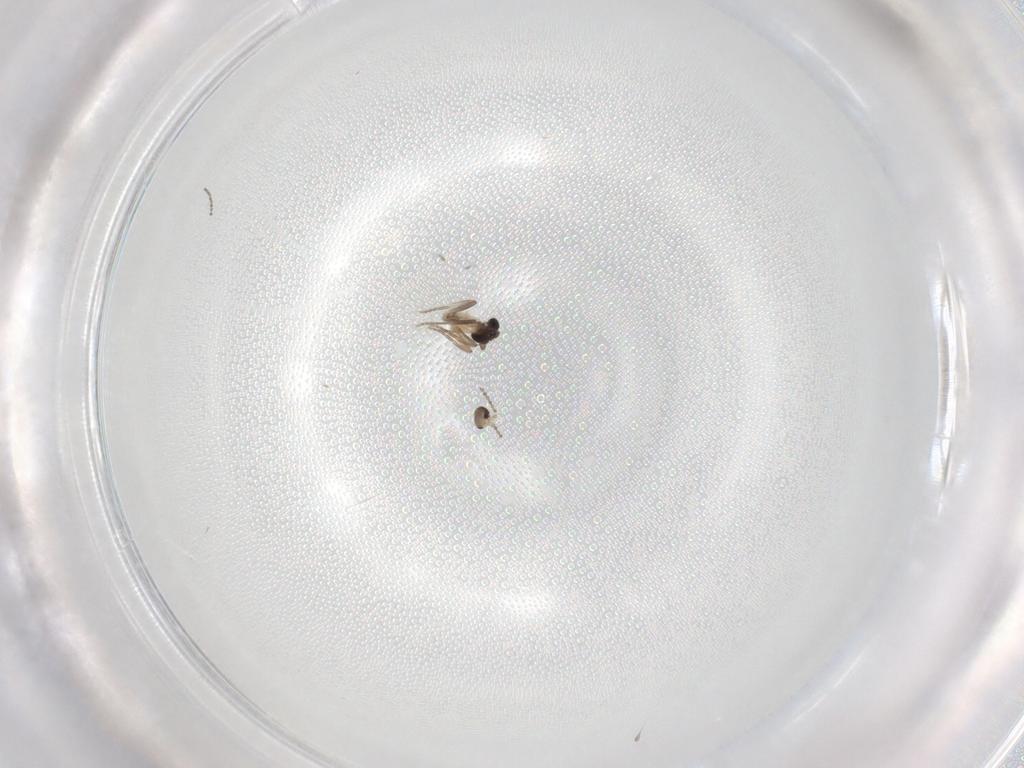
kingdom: Animalia
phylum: Arthropoda
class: Insecta
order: Diptera
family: Cecidomyiidae
